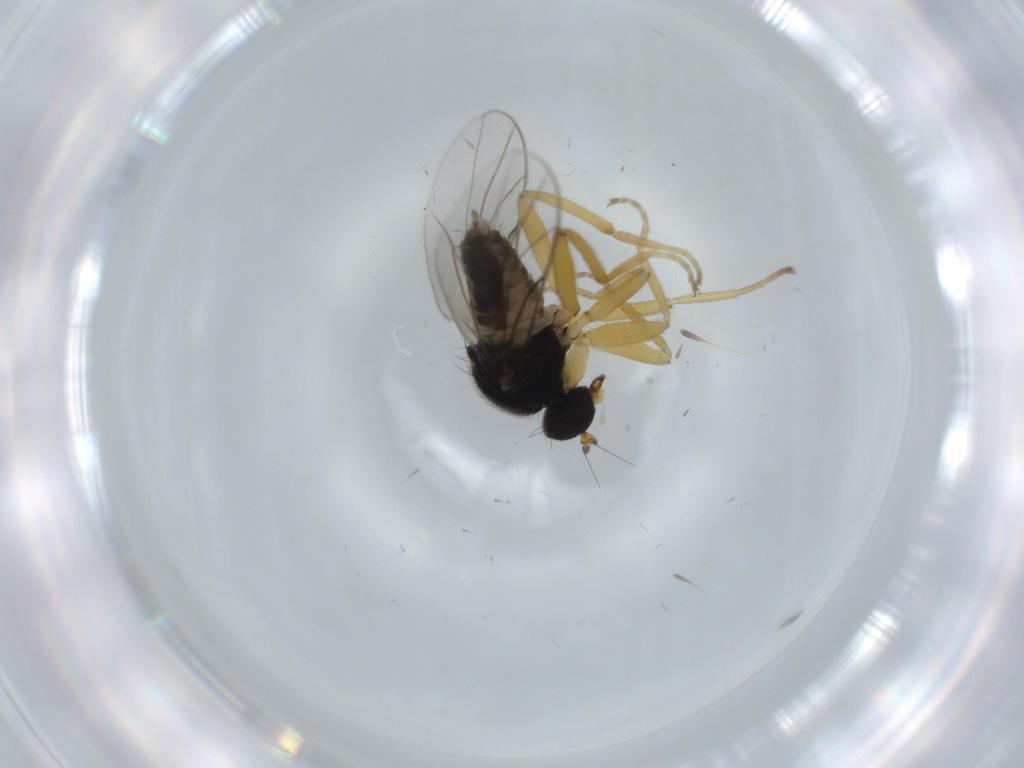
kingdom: Animalia
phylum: Arthropoda
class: Insecta
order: Diptera
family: Hybotidae
